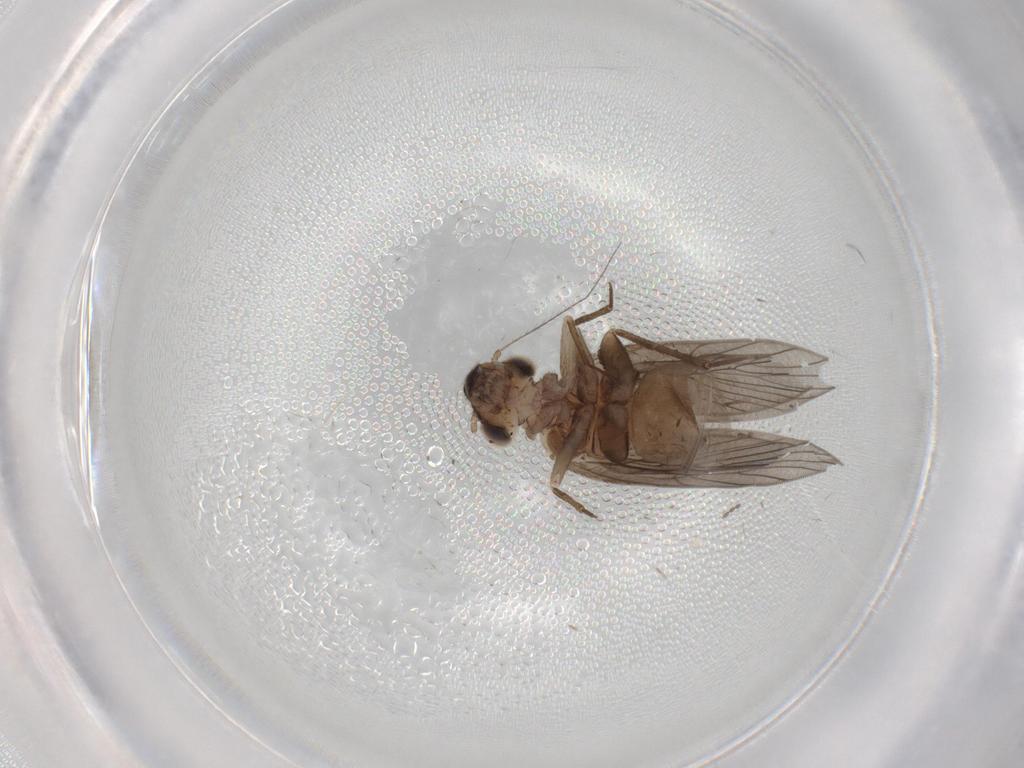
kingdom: Animalia
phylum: Arthropoda
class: Insecta
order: Psocodea
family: Lepidopsocidae
